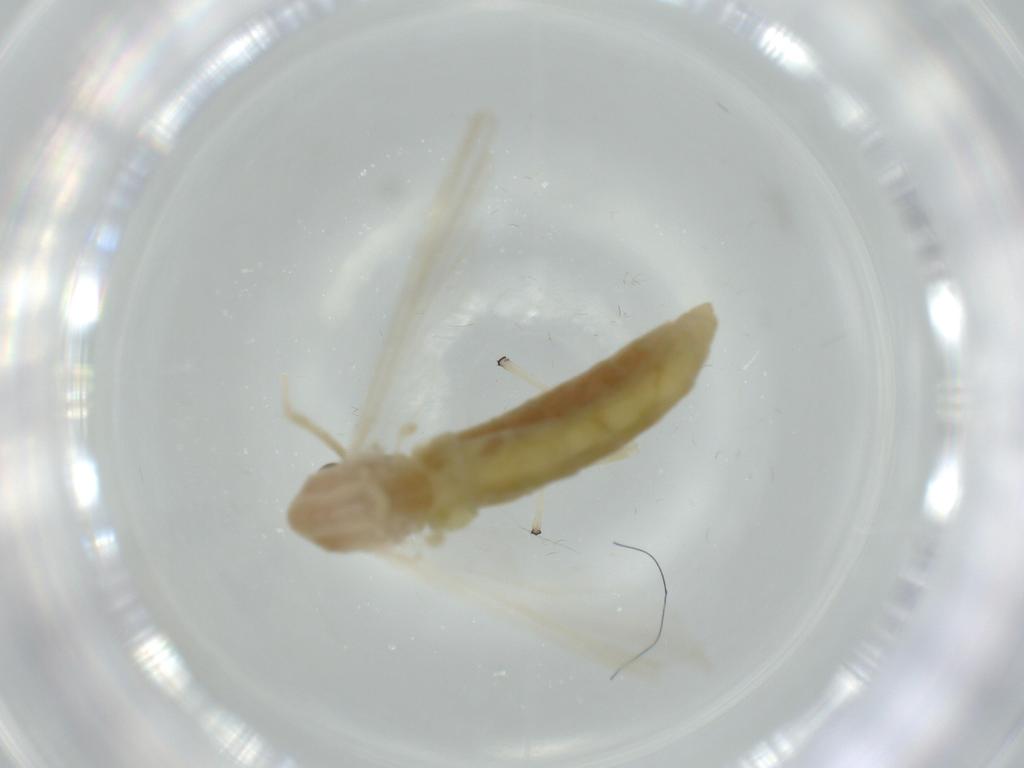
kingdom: Animalia
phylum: Arthropoda
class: Insecta
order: Diptera
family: Chironomidae
